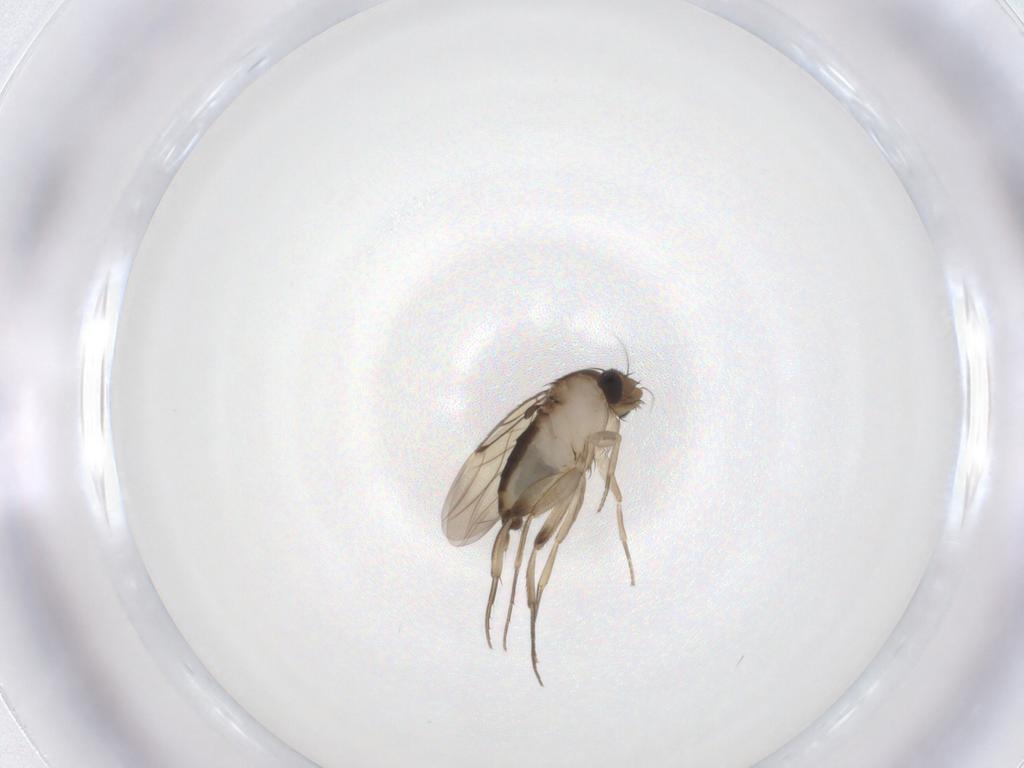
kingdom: Animalia
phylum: Arthropoda
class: Insecta
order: Diptera
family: Phoridae
